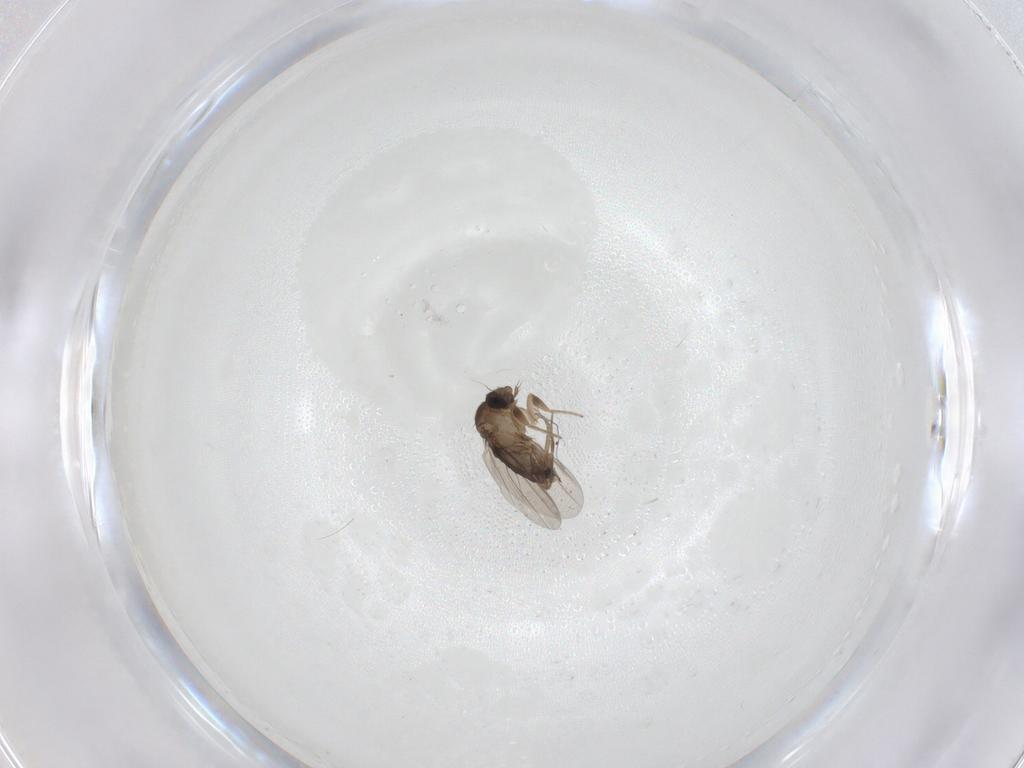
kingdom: Animalia
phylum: Arthropoda
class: Insecta
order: Diptera
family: Phoridae
